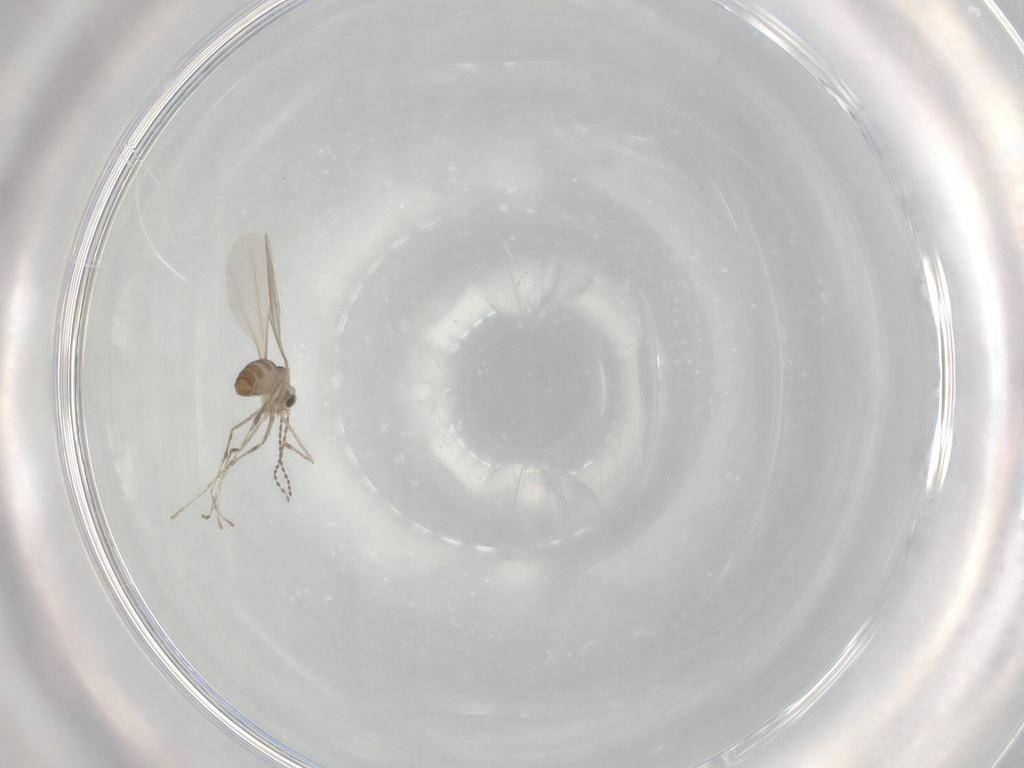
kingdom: Animalia
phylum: Arthropoda
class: Insecta
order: Diptera
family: Cecidomyiidae
